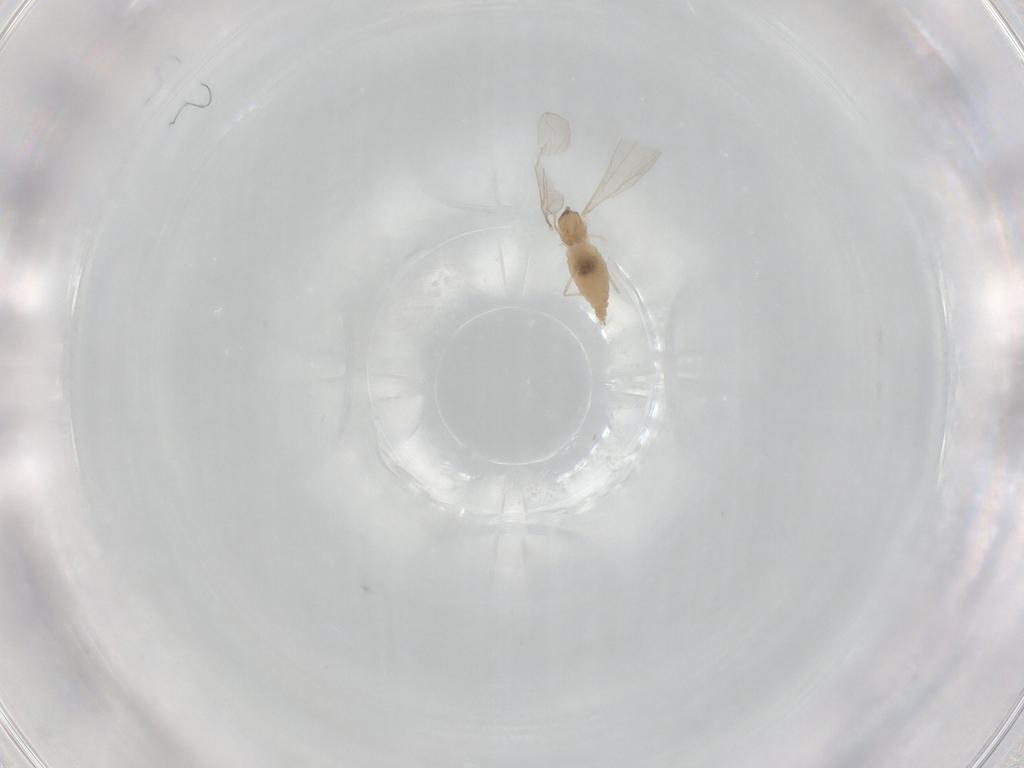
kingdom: Animalia
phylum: Arthropoda
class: Insecta
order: Diptera
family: Cecidomyiidae
